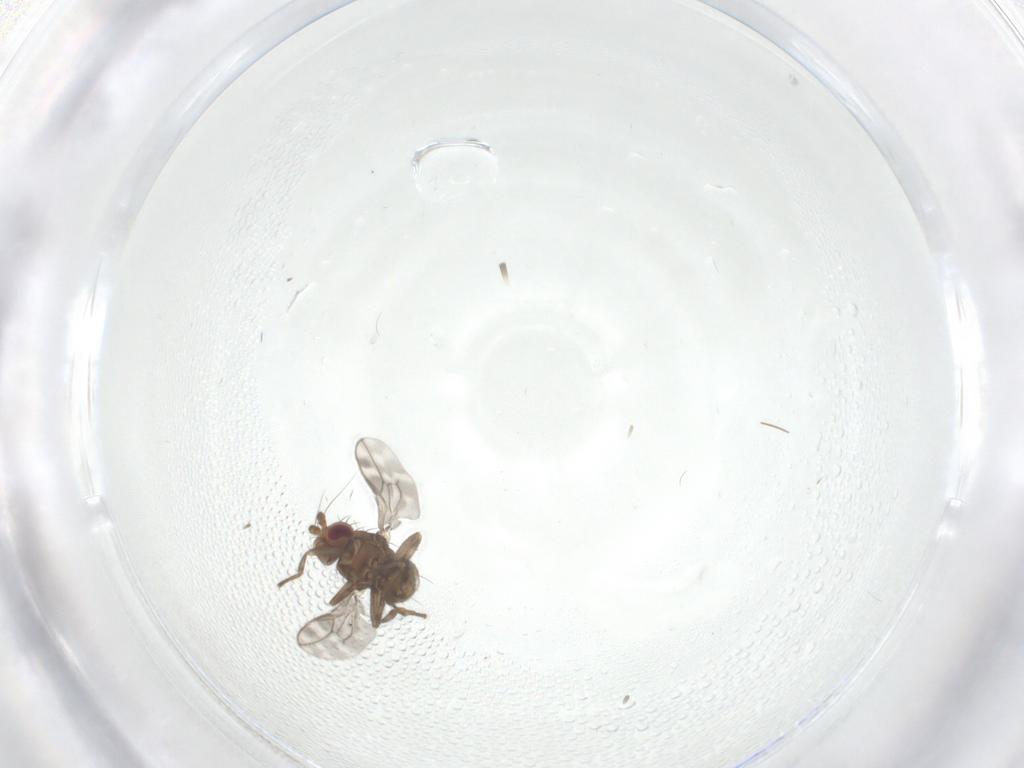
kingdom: Animalia
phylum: Arthropoda
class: Insecta
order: Diptera
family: Sphaeroceridae
